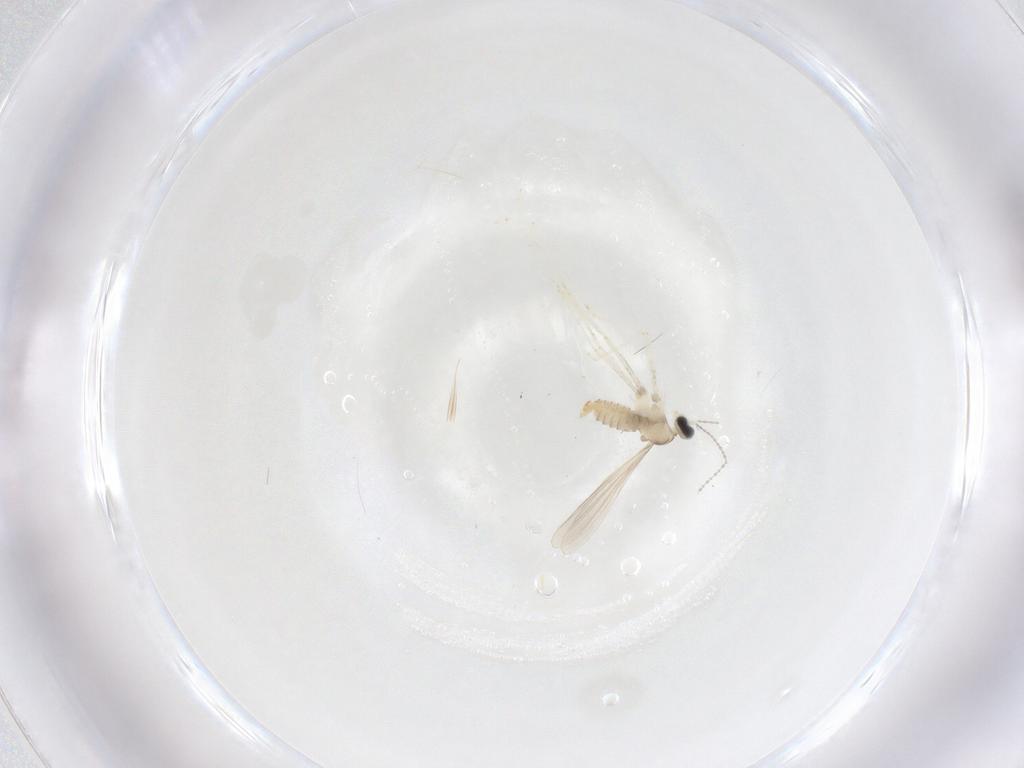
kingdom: Animalia
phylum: Arthropoda
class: Insecta
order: Diptera
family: Cecidomyiidae
